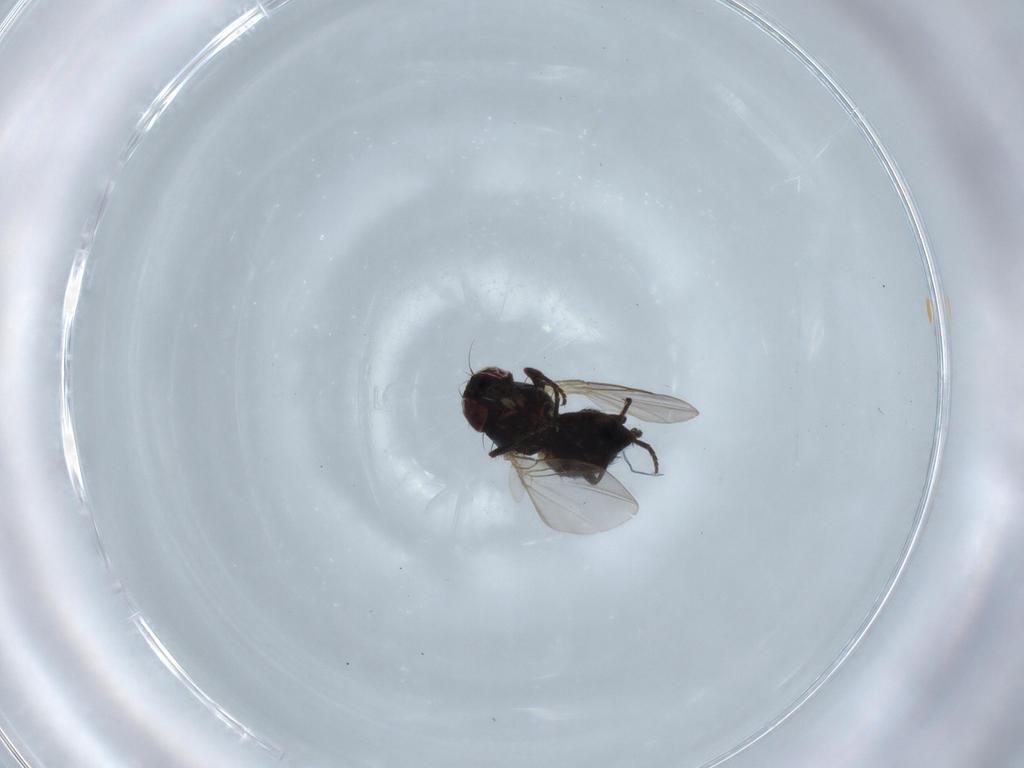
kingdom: Animalia
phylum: Arthropoda
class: Insecta
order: Diptera
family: Ceratopogonidae
